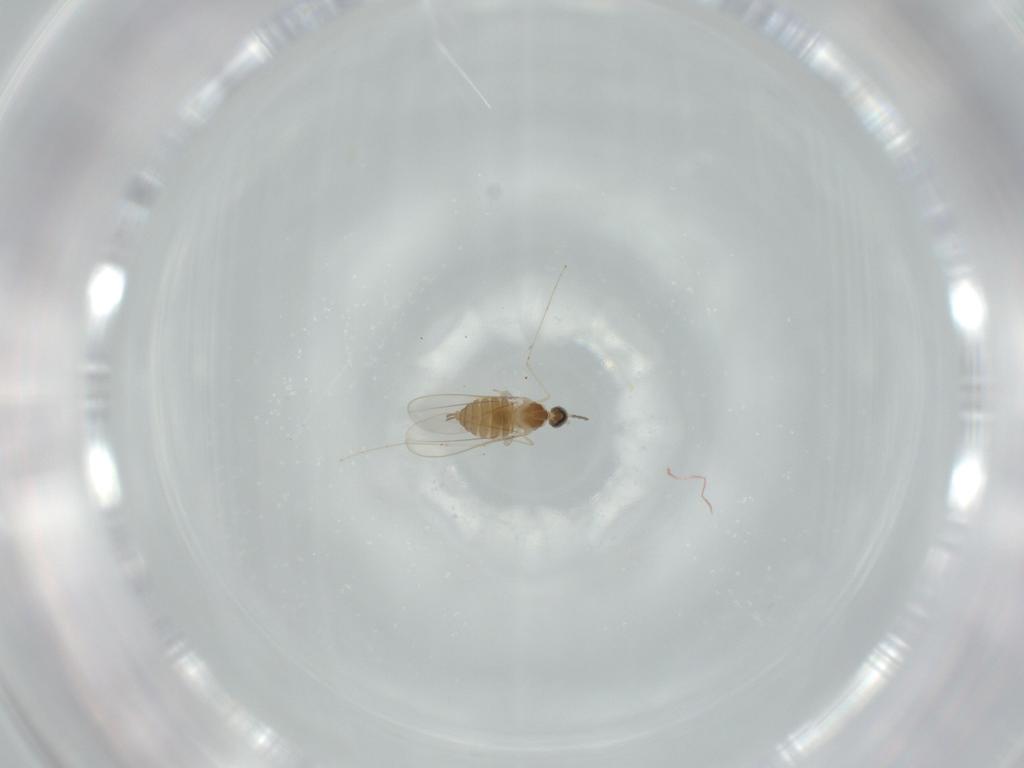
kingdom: Animalia
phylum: Arthropoda
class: Insecta
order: Diptera
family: Cecidomyiidae
